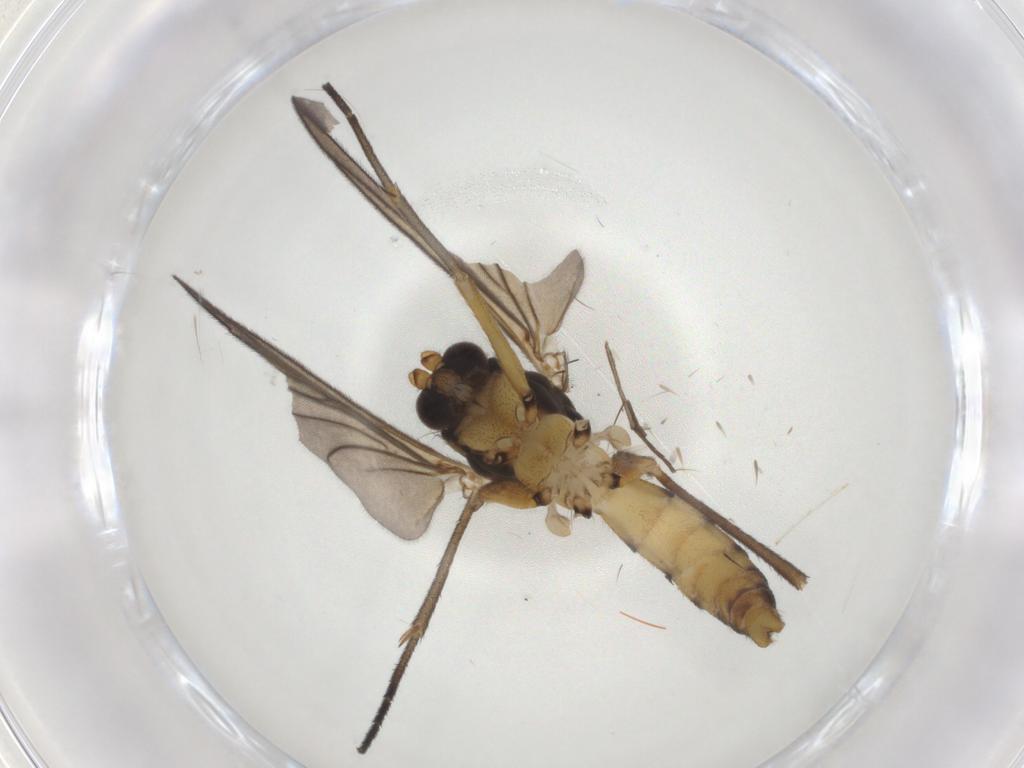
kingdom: Animalia
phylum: Arthropoda
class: Insecta
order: Diptera
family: Mycetophilidae
